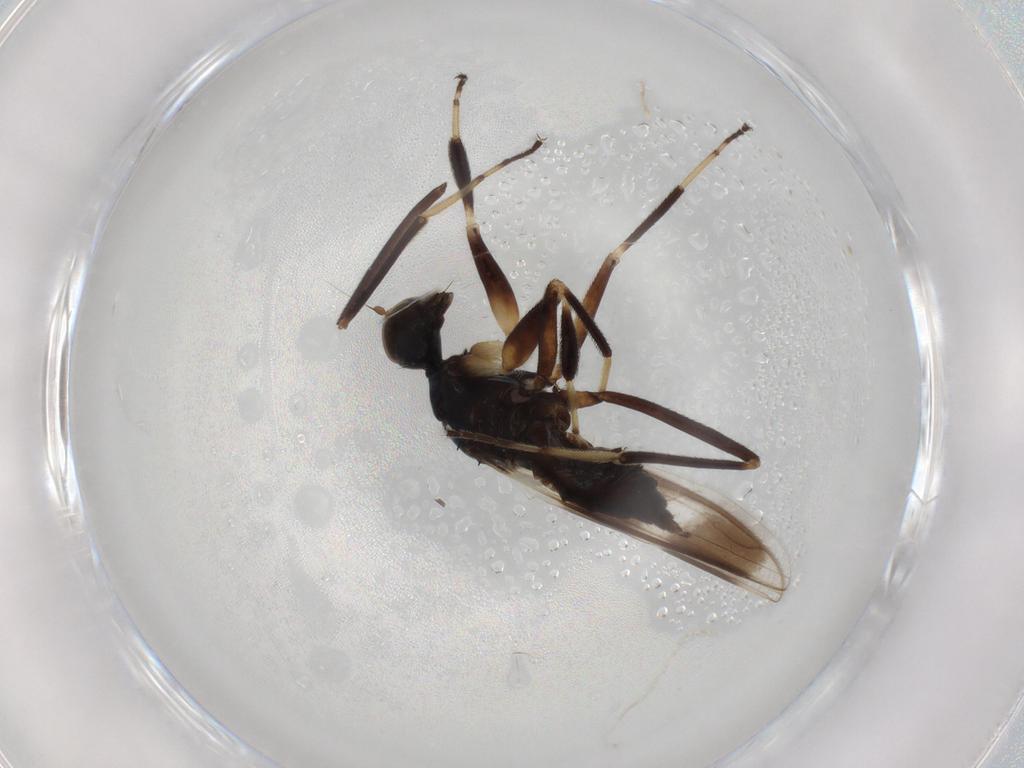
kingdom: Animalia
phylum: Arthropoda
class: Insecta
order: Diptera
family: Hybotidae
